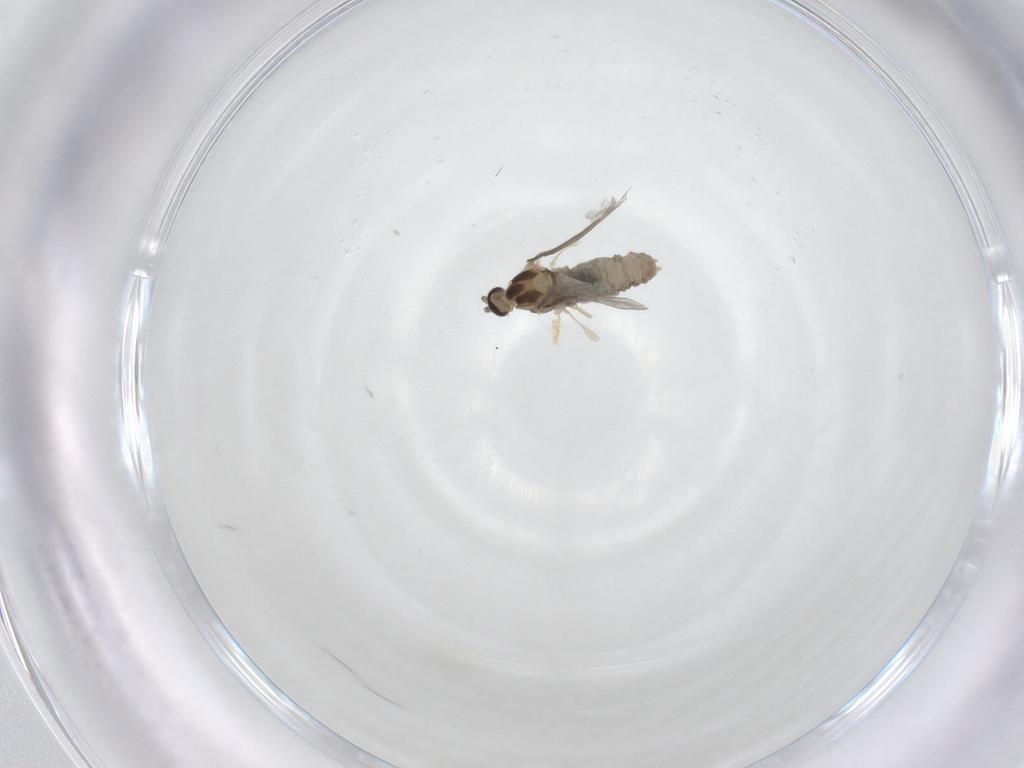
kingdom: Animalia
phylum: Arthropoda
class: Insecta
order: Diptera
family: Cecidomyiidae
